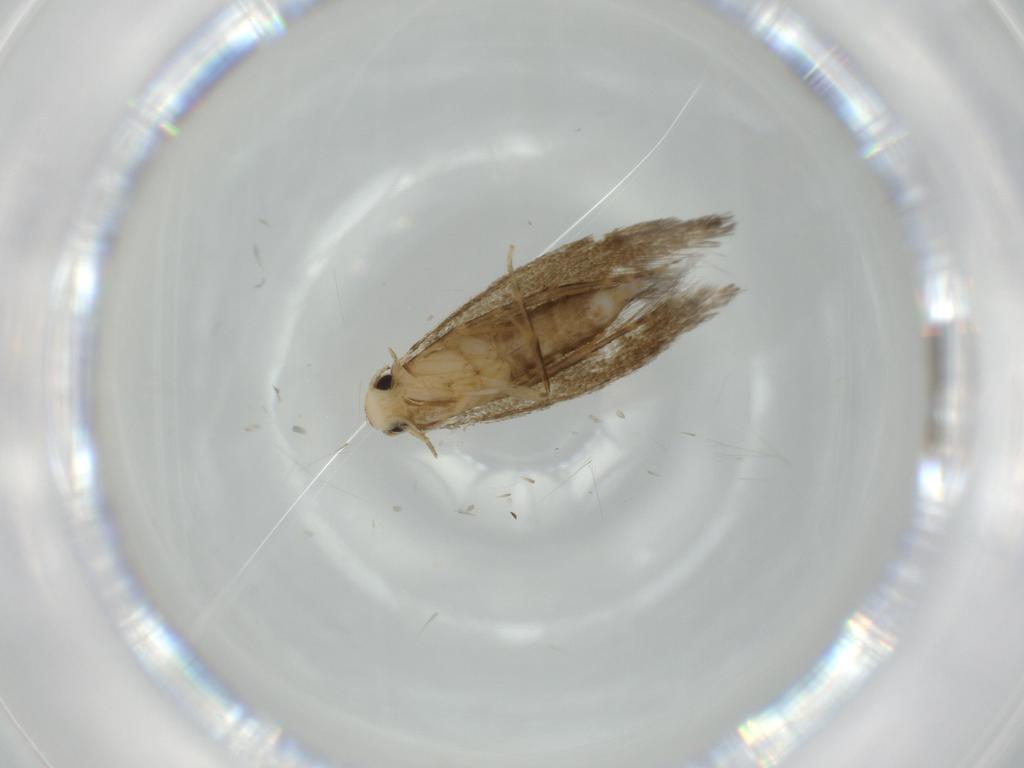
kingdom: Animalia
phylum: Arthropoda
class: Insecta
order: Lepidoptera
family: Tineidae
